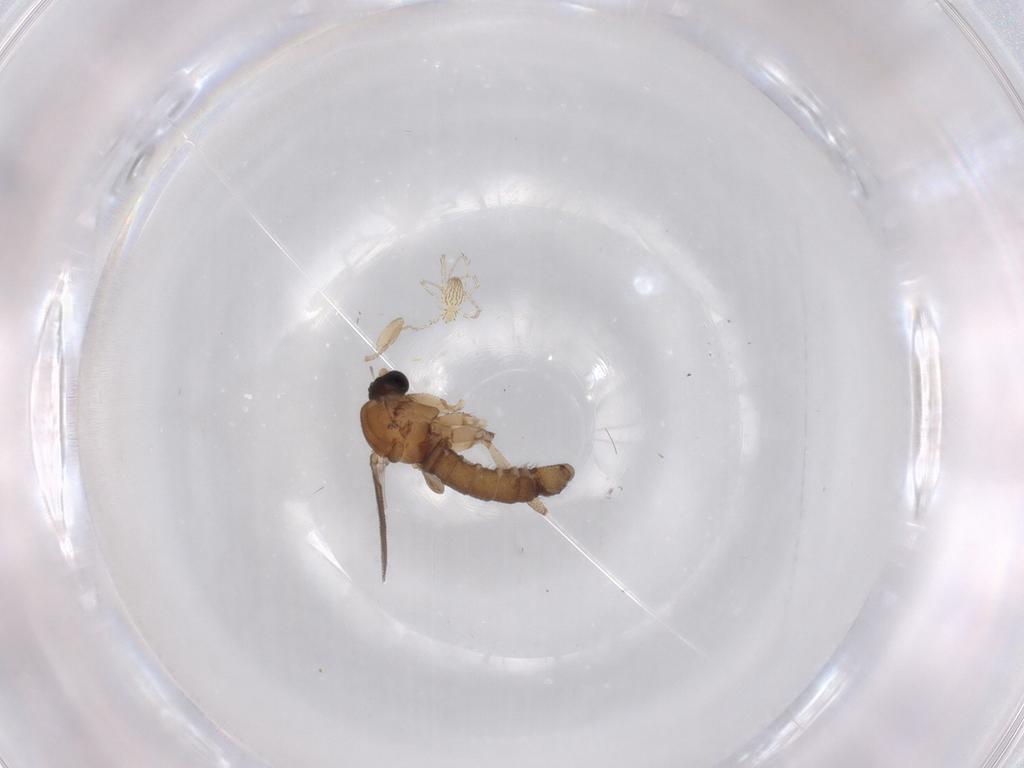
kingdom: Animalia
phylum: Arthropoda
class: Insecta
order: Diptera
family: Sciaridae
